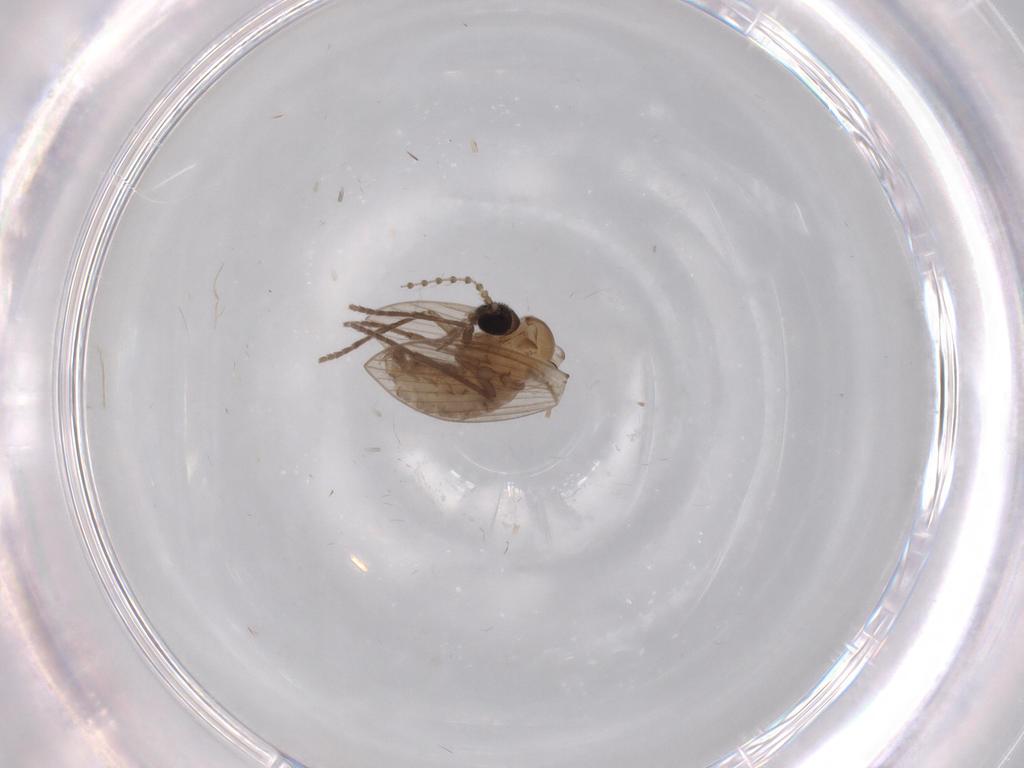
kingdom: Animalia
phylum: Arthropoda
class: Insecta
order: Diptera
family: Psychodidae
